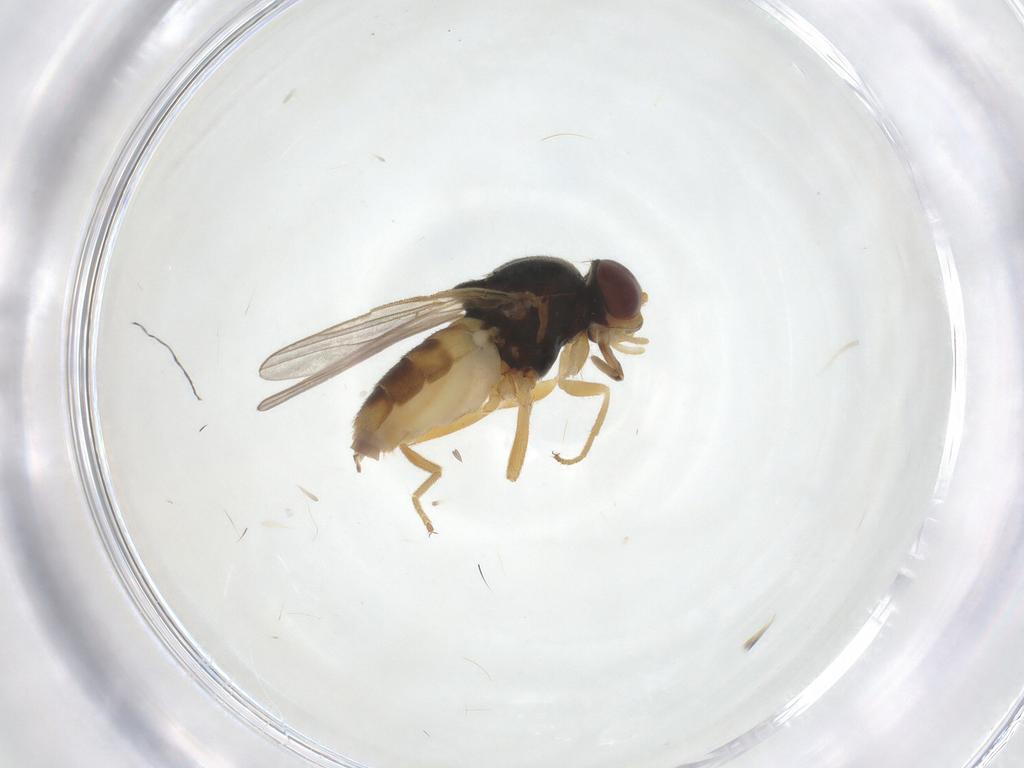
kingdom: Animalia
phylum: Arthropoda
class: Insecta
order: Diptera
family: Chloropidae
